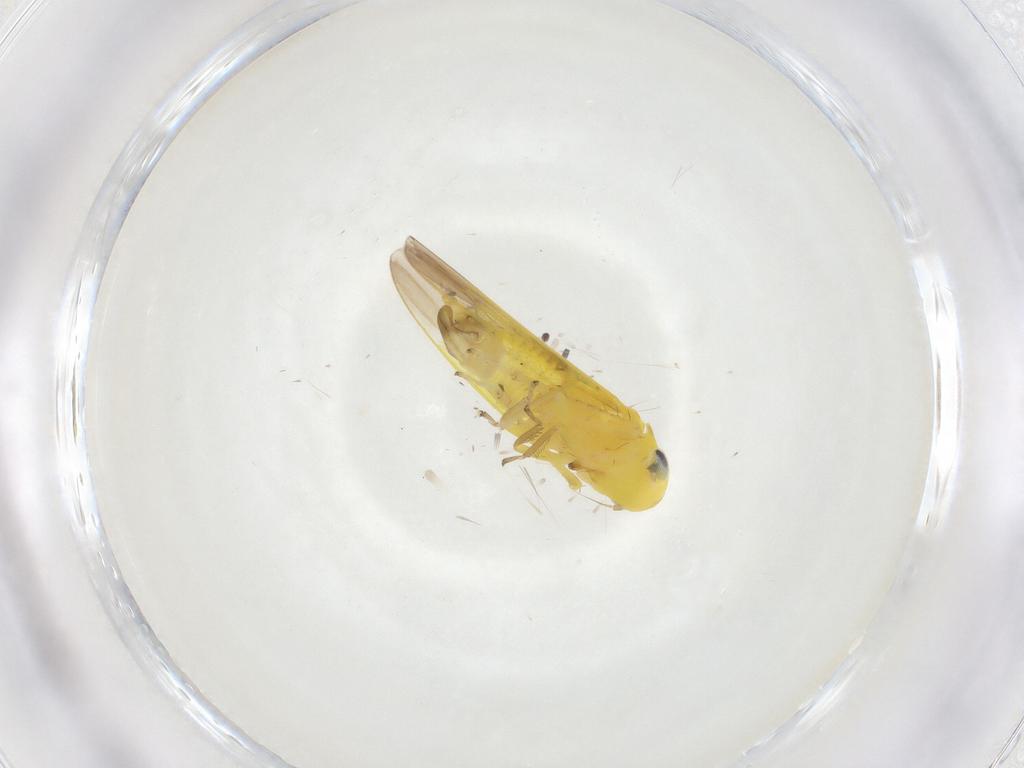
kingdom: Animalia
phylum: Arthropoda
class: Insecta
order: Hemiptera
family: Cicadellidae
